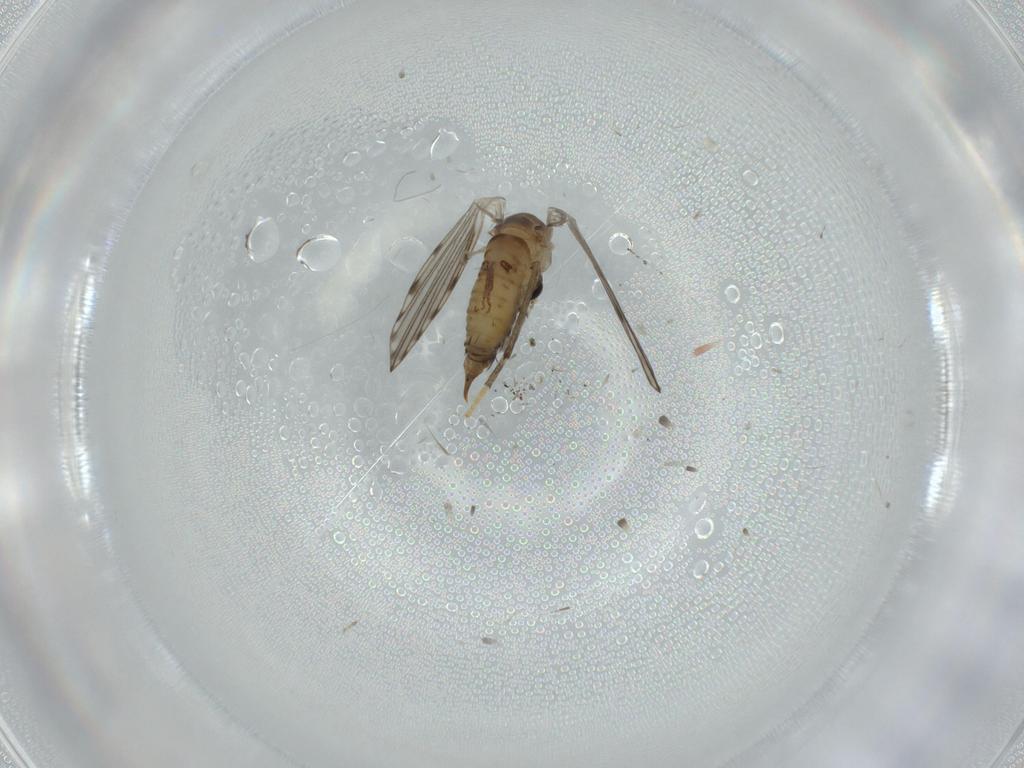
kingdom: Animalia
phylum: Arthropoda
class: Insecta
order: Diptera
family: Psychodidae
